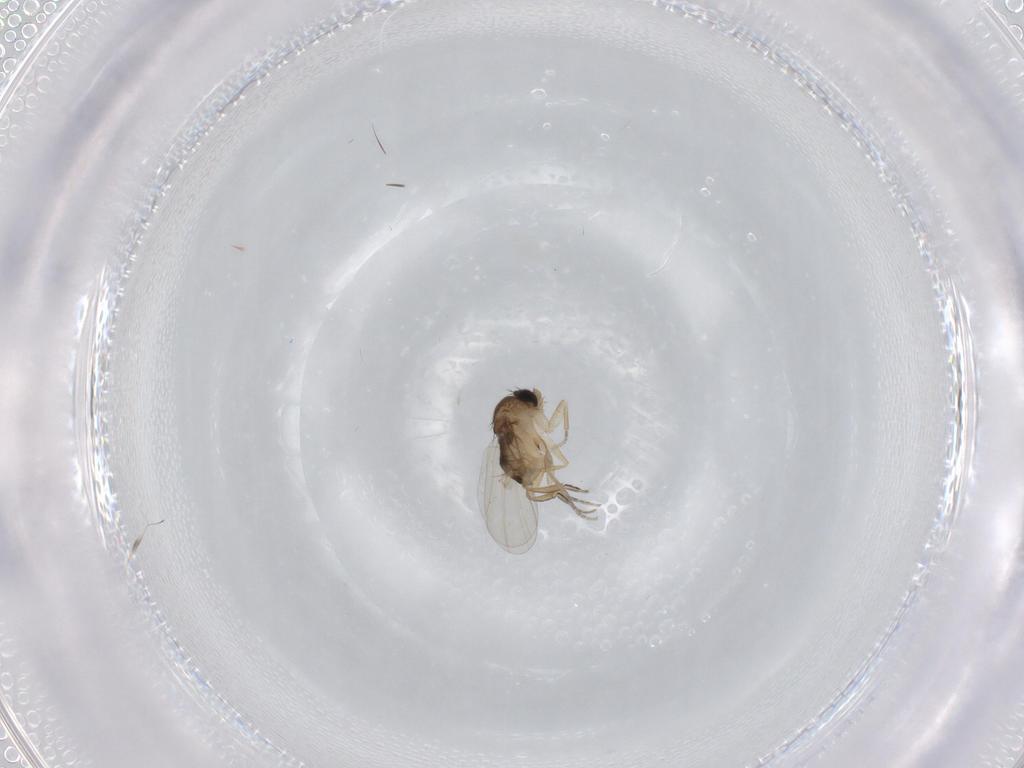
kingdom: Animalia
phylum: Arthropoda
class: Insecta
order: Diptera
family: Phoridae
